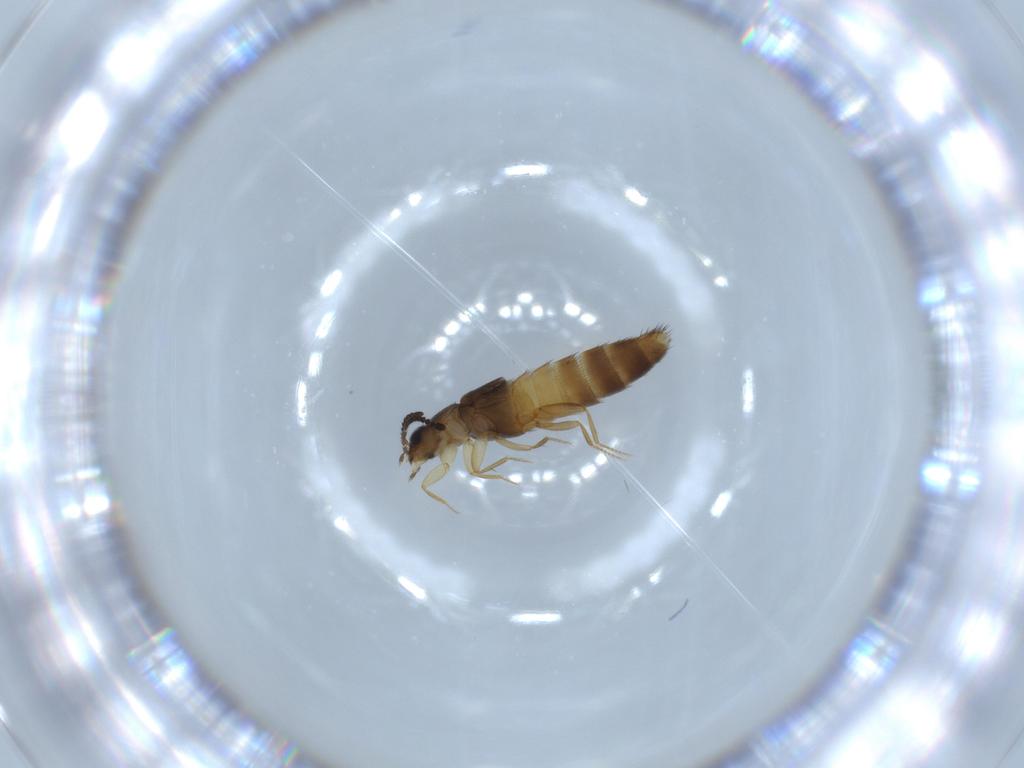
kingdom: Animalia
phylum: Arthropoda
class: Insecta
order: Coleoptera
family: Staphylinidae
